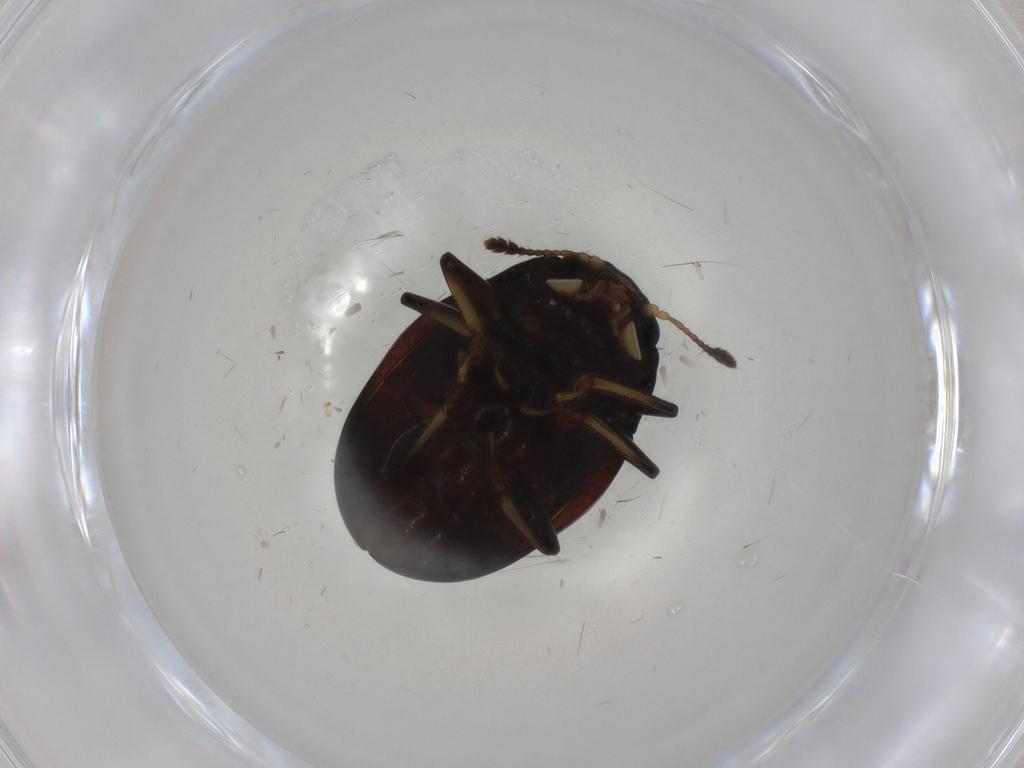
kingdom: Animalia
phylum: Arthropoda
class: Insecta
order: Coleoptera
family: Erotylidae
